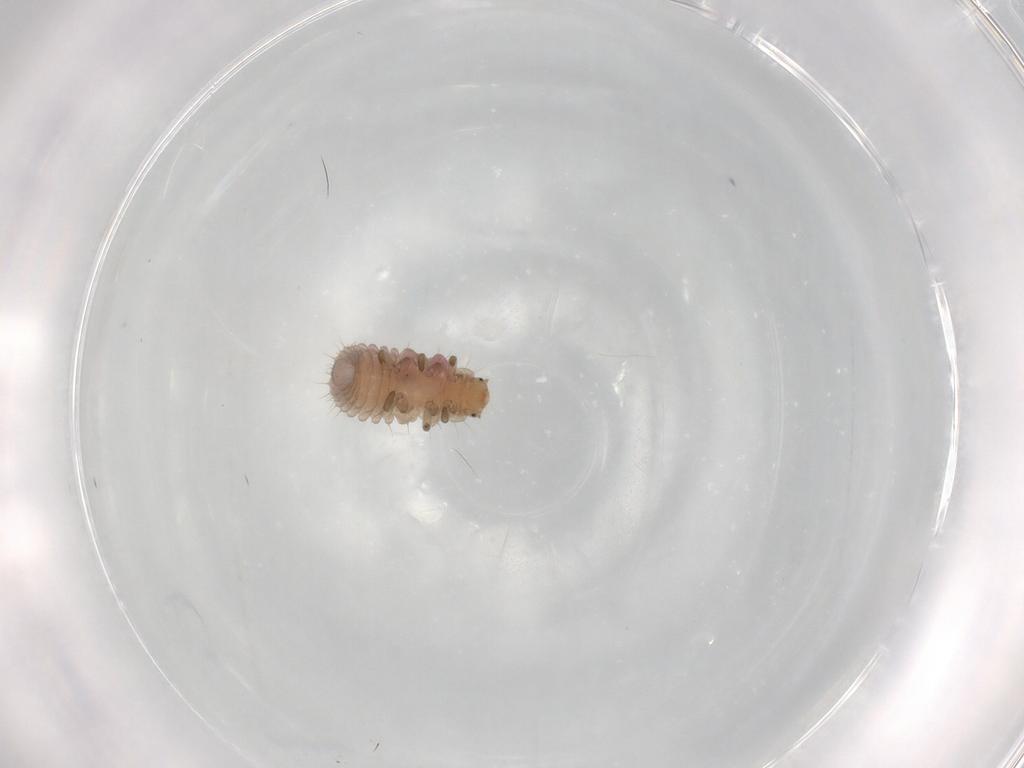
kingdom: Animalia
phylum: Arthropoda
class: Insecta
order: Coleoptera
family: Coccinellidae
